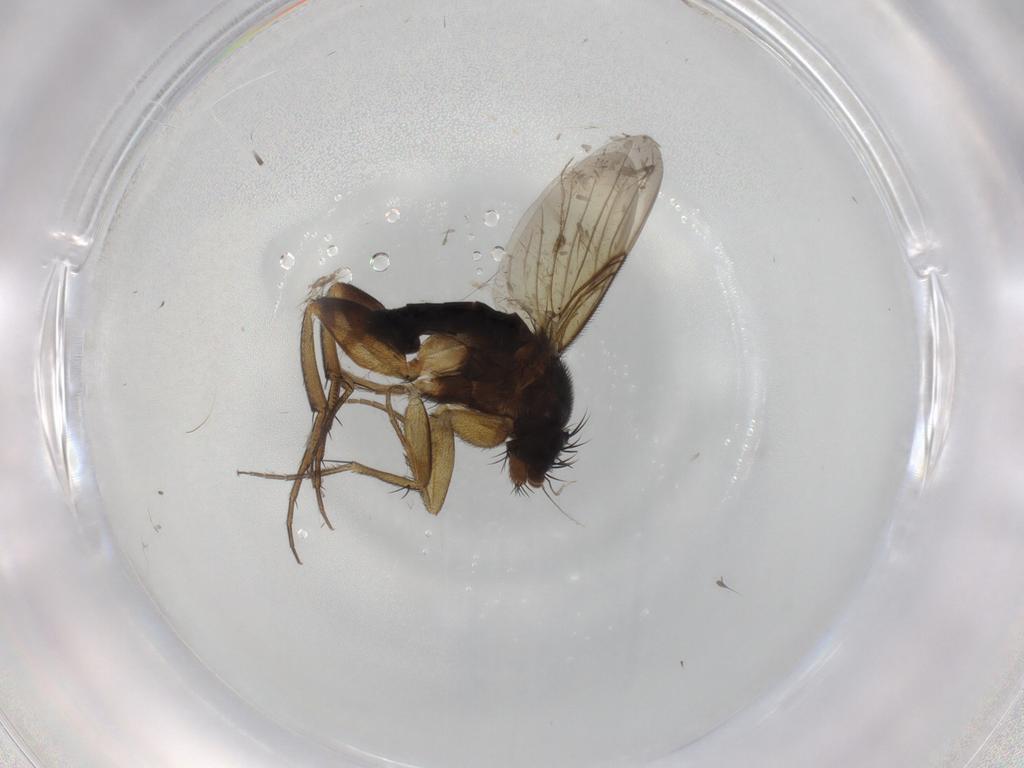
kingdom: Animalia
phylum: Arthropoda
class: Insecta
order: Diptera
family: Phoridae
